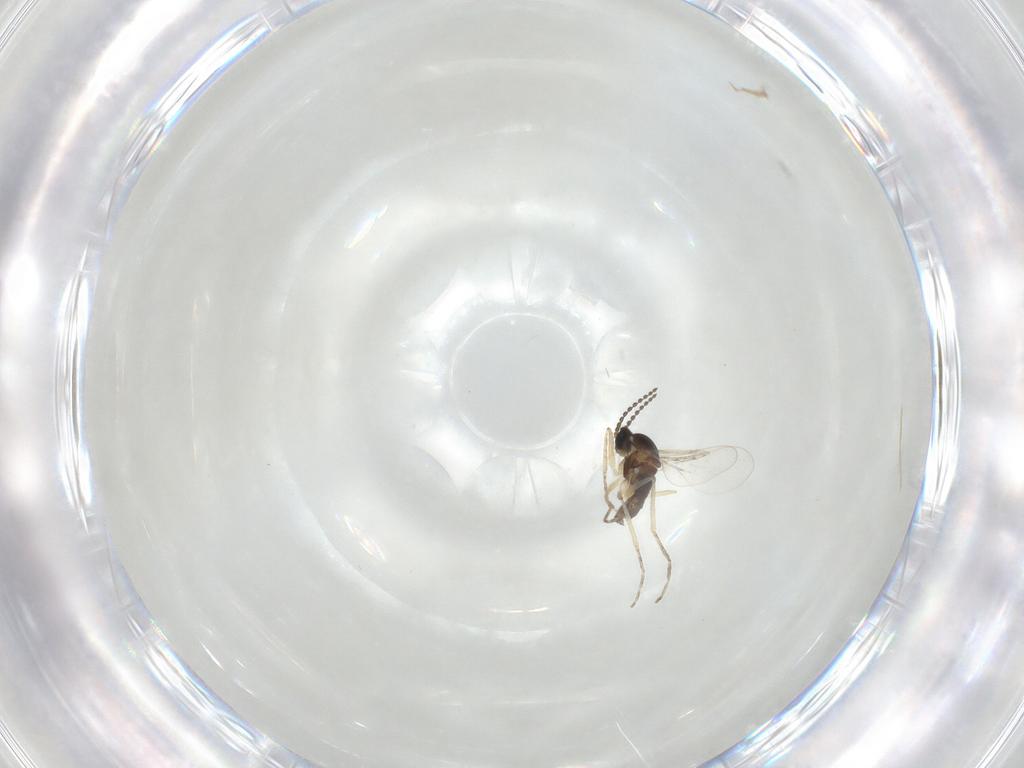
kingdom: Animalia
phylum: Arthropoda
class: Insecta
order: Diptera
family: Cecidomyiidae
